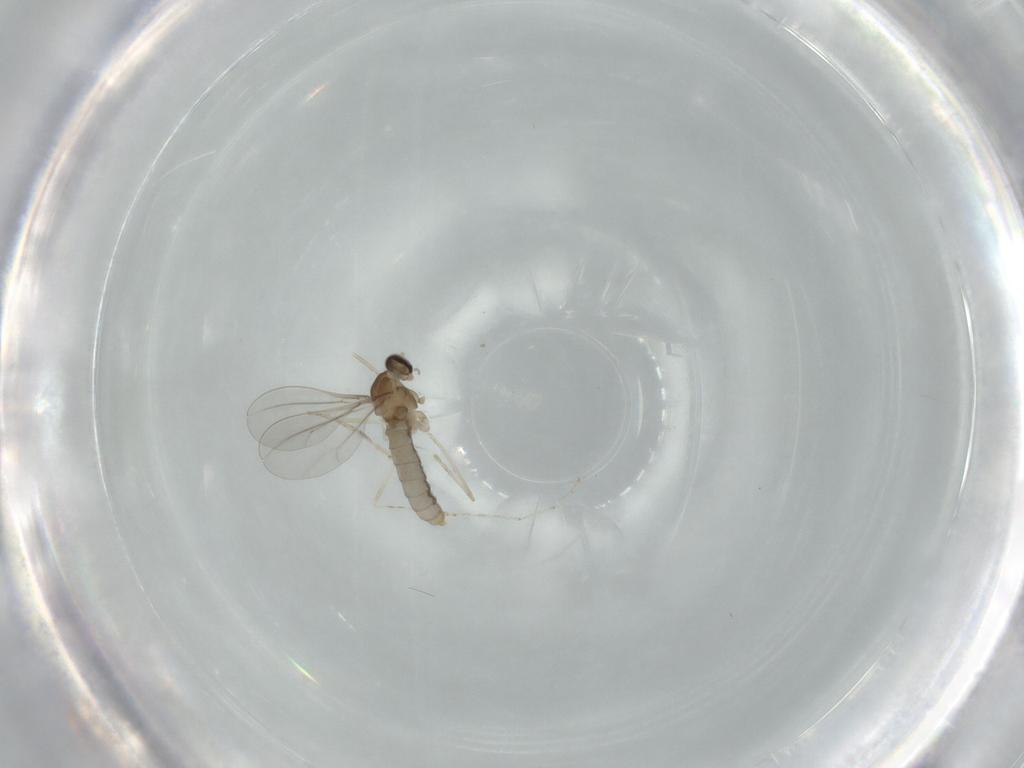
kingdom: Animalia
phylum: Arthropoda
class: Insecta
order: Diptera
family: Cecidomyiidae
